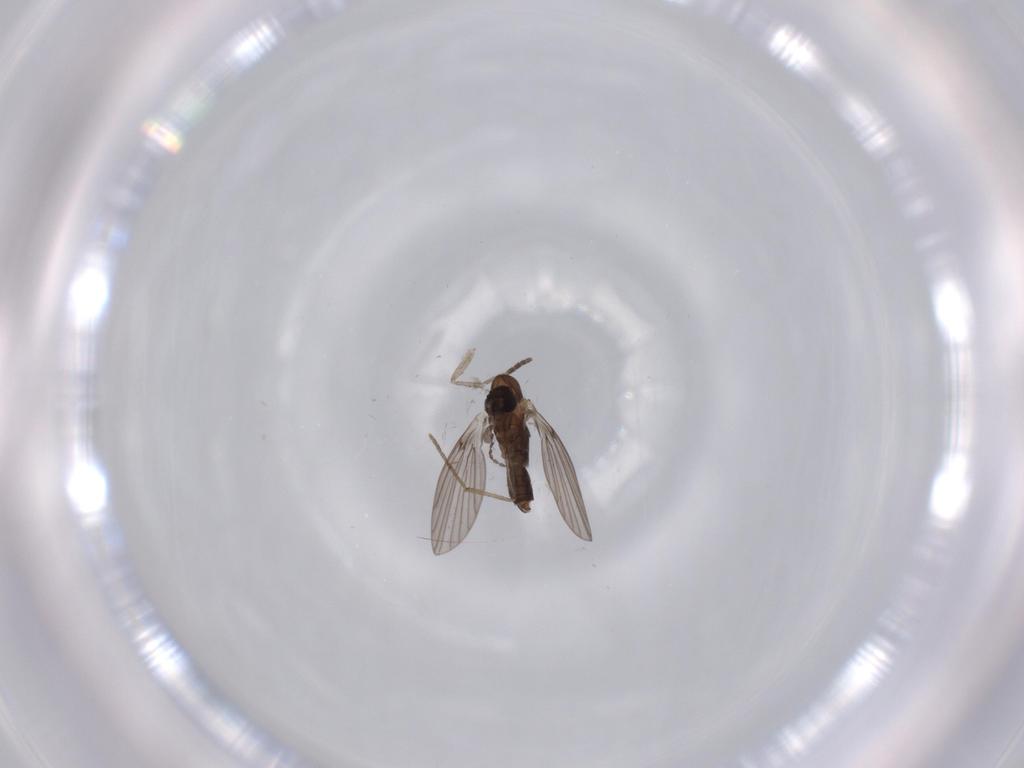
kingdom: Animalia
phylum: Arthropoda
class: Insecta
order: Diptera
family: Psychodidae
